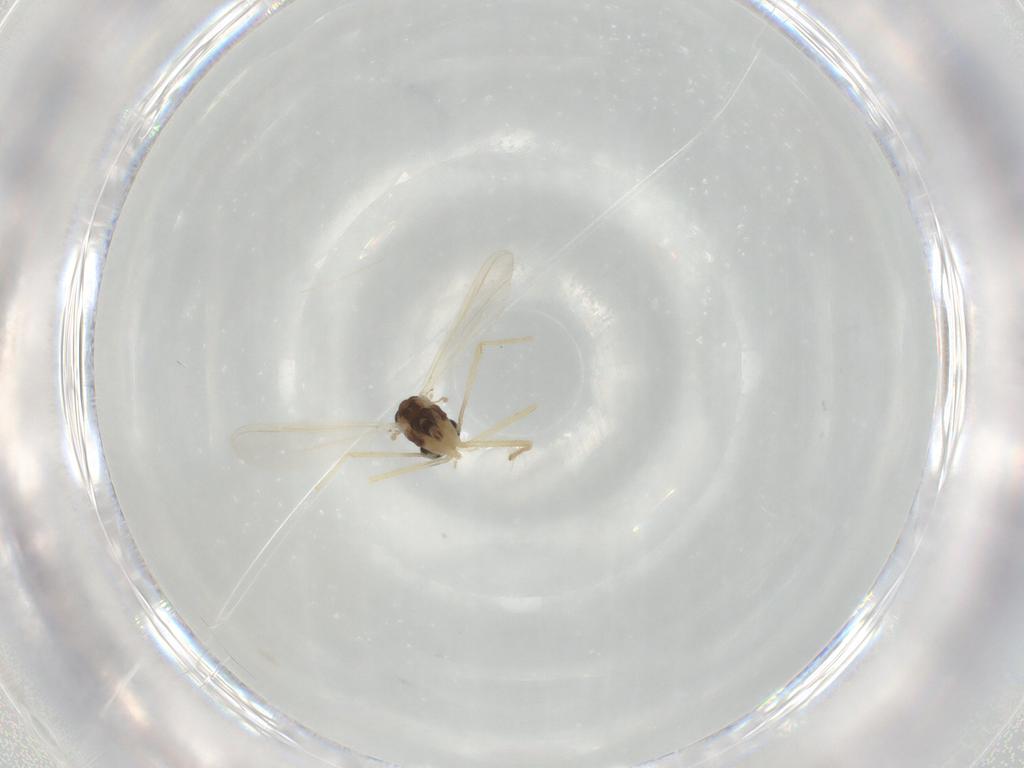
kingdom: Animalia
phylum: Arthropoda
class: Insecta
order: Diptera
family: Chironomidae
